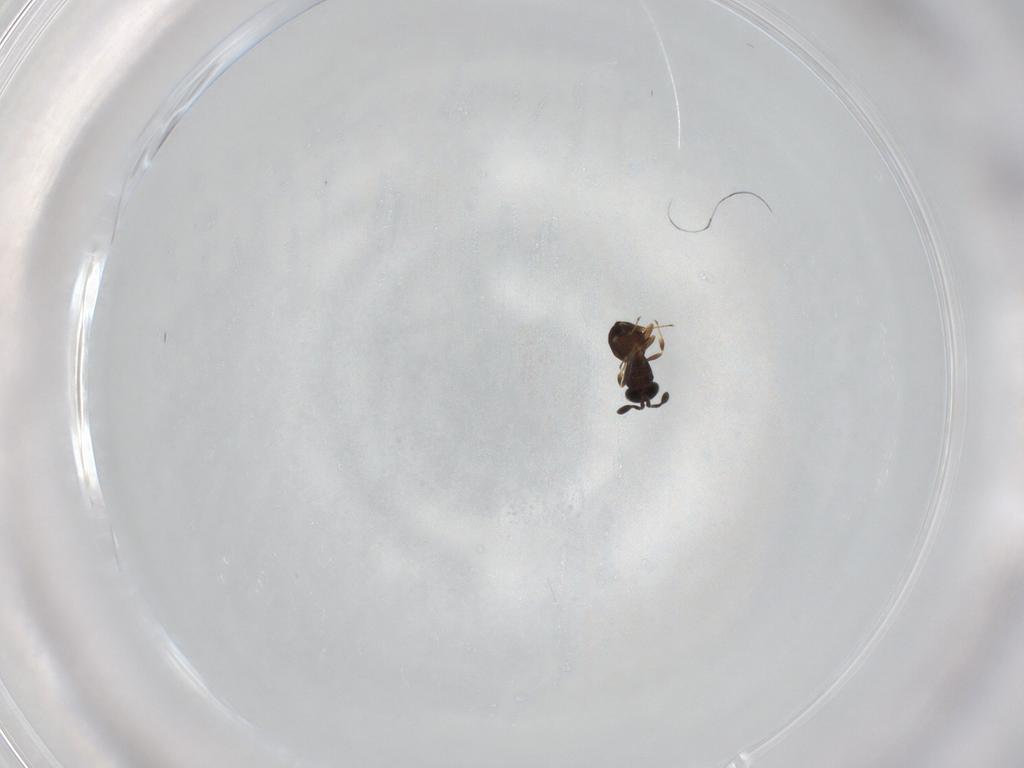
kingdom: Animalia
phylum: Arthropoda
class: Insecta
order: Hymenoptera
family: Scelionidae
